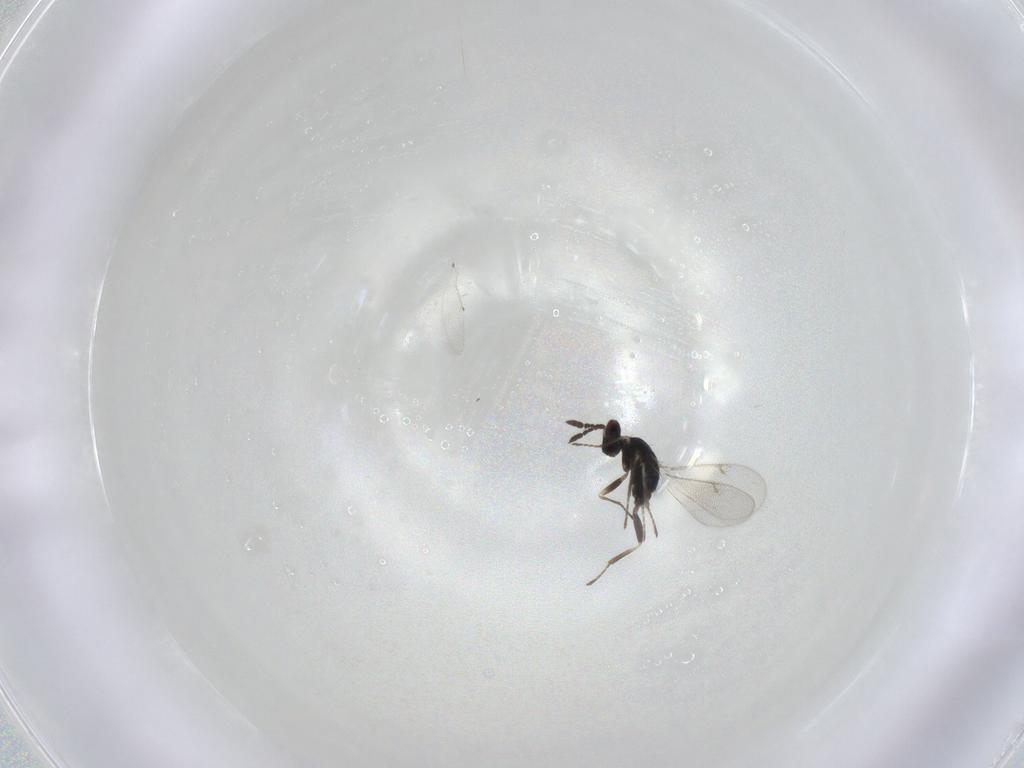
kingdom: Animalia
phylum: Arthropoda
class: Insecta
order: Hymenoptera
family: Eulophidae
